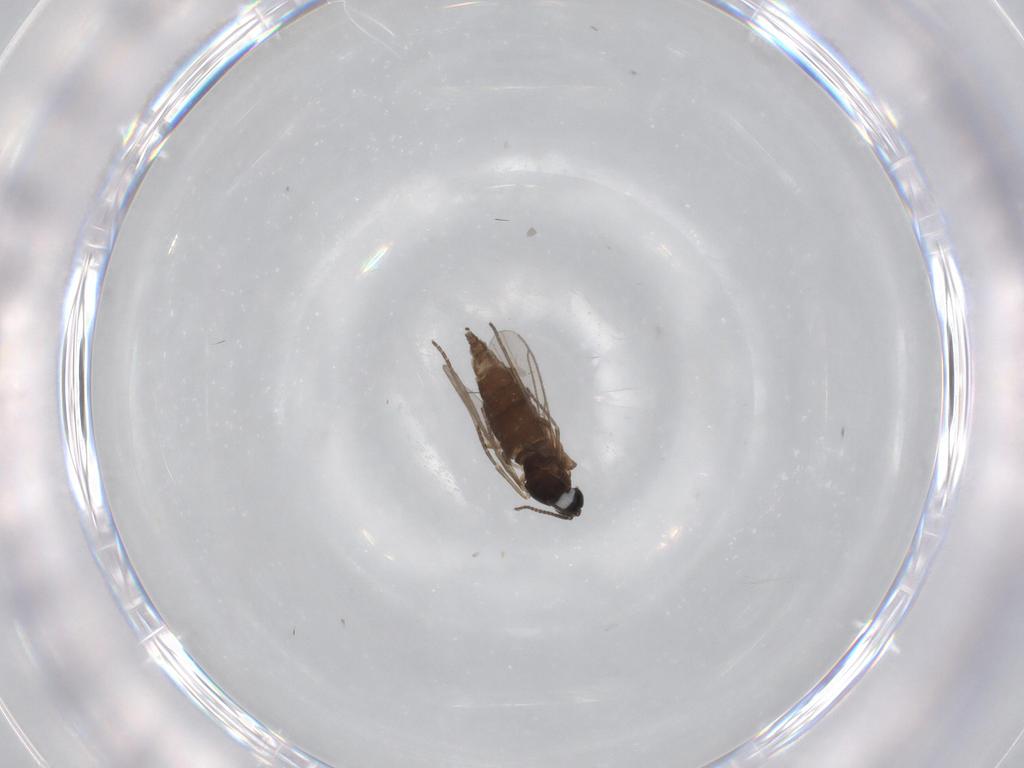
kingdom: Animalia
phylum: Arthropoda
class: Insecta
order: Diptera
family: Sciaridae
